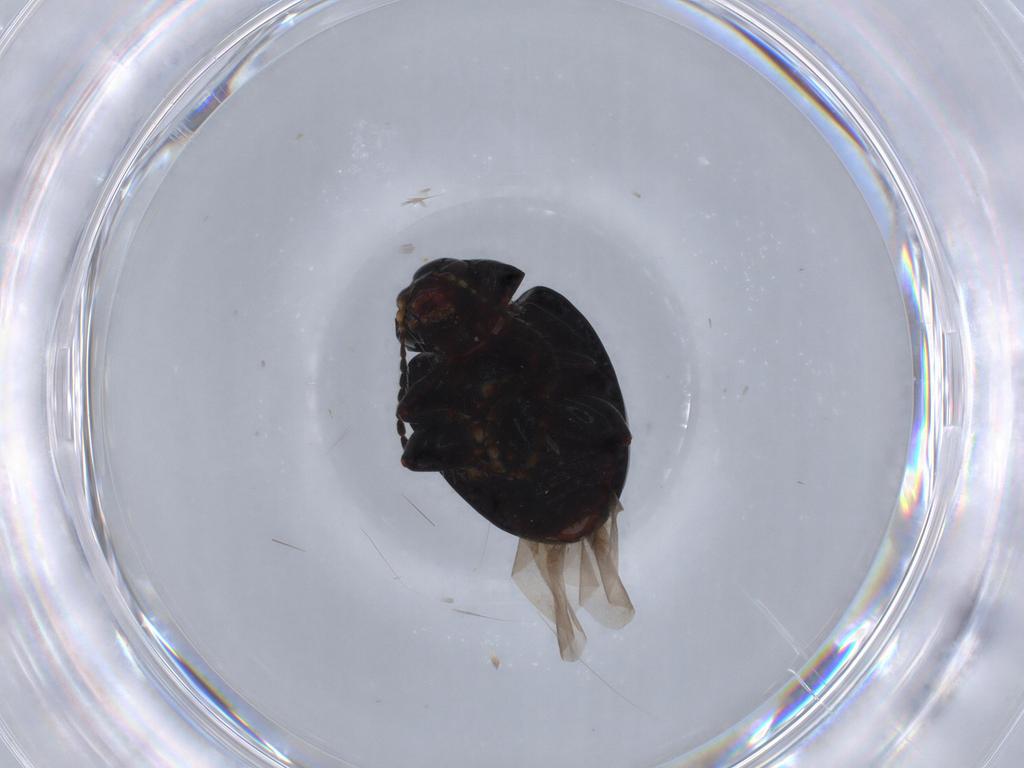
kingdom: Animalia
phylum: Arthropoda
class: Insecta
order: Coleoptera
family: Chrysomelidae
